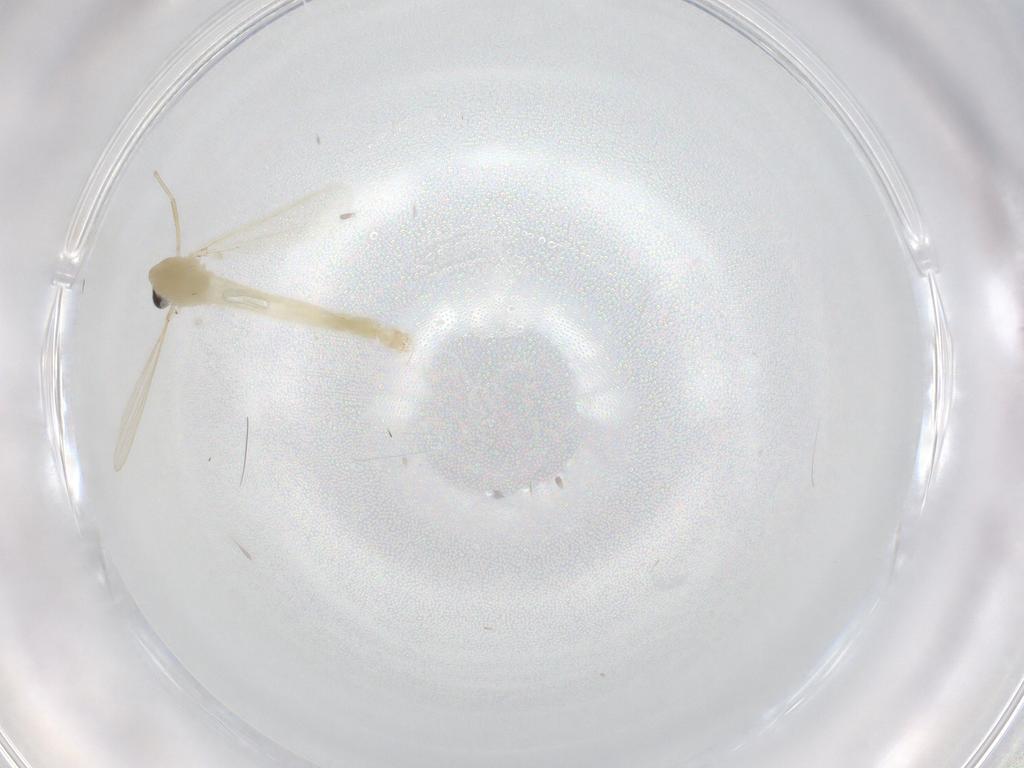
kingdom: Animalia
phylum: Arthropoda
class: Insecta
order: Diptera
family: Chironomidae
